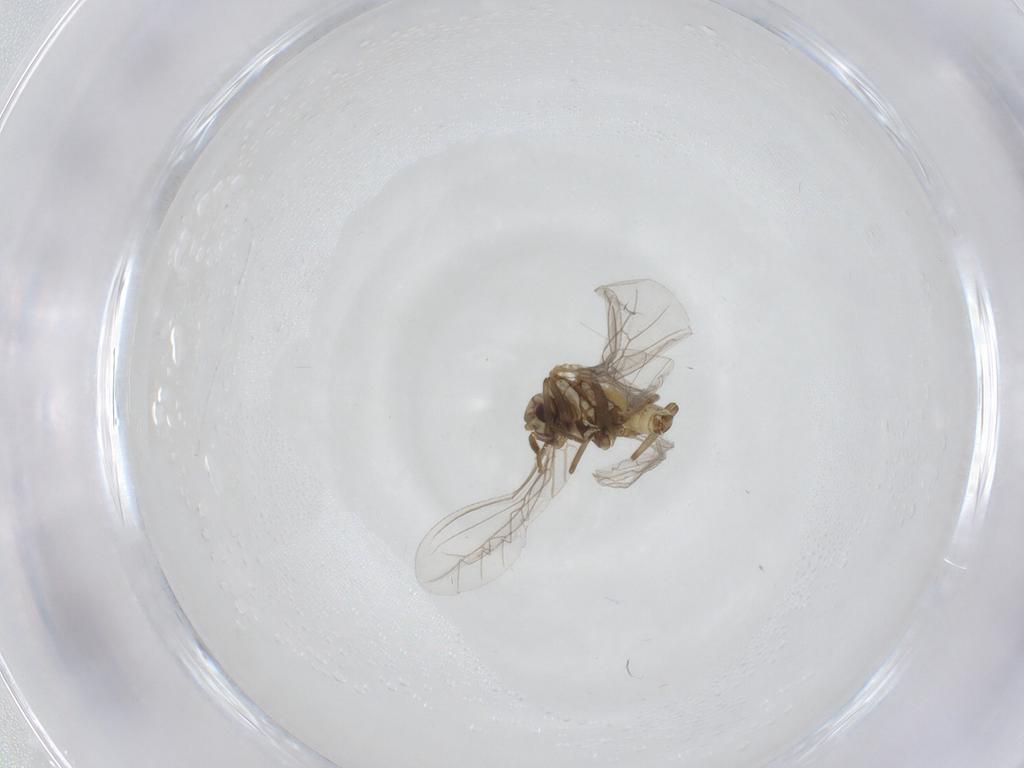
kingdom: Animalia
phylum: Arthropoda
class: Insecta
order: Neuroptera
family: Coniopterygidae
